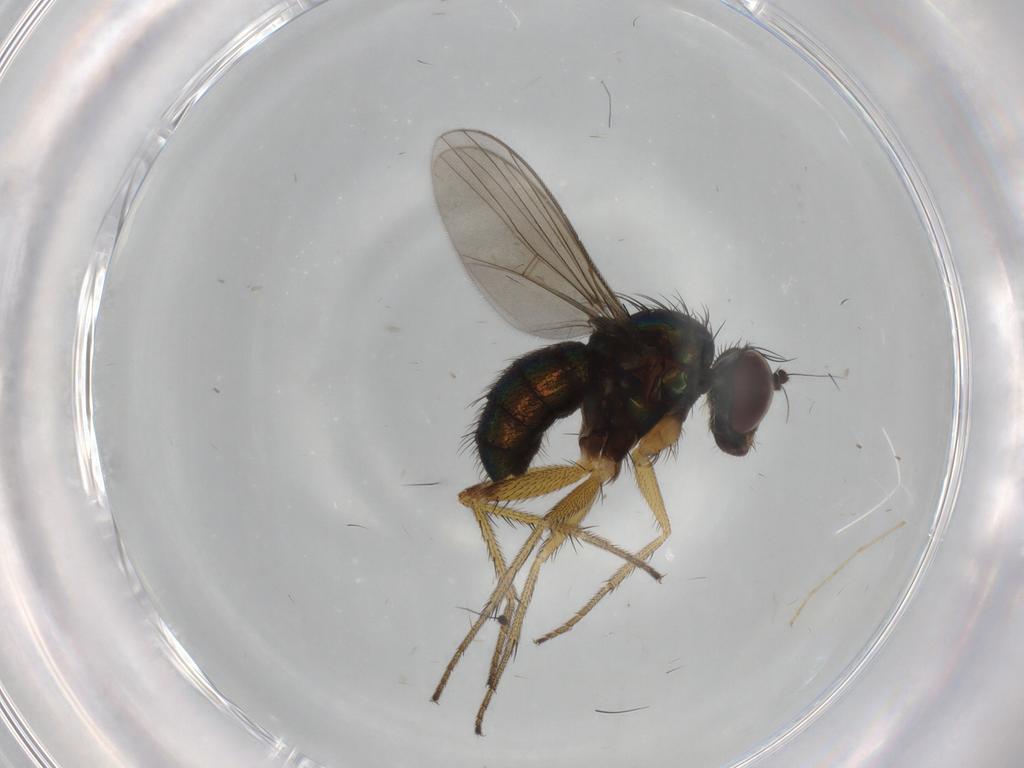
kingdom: Animalia
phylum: Arthropoda
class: Insecta
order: Diptera
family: Dolichopodidae
